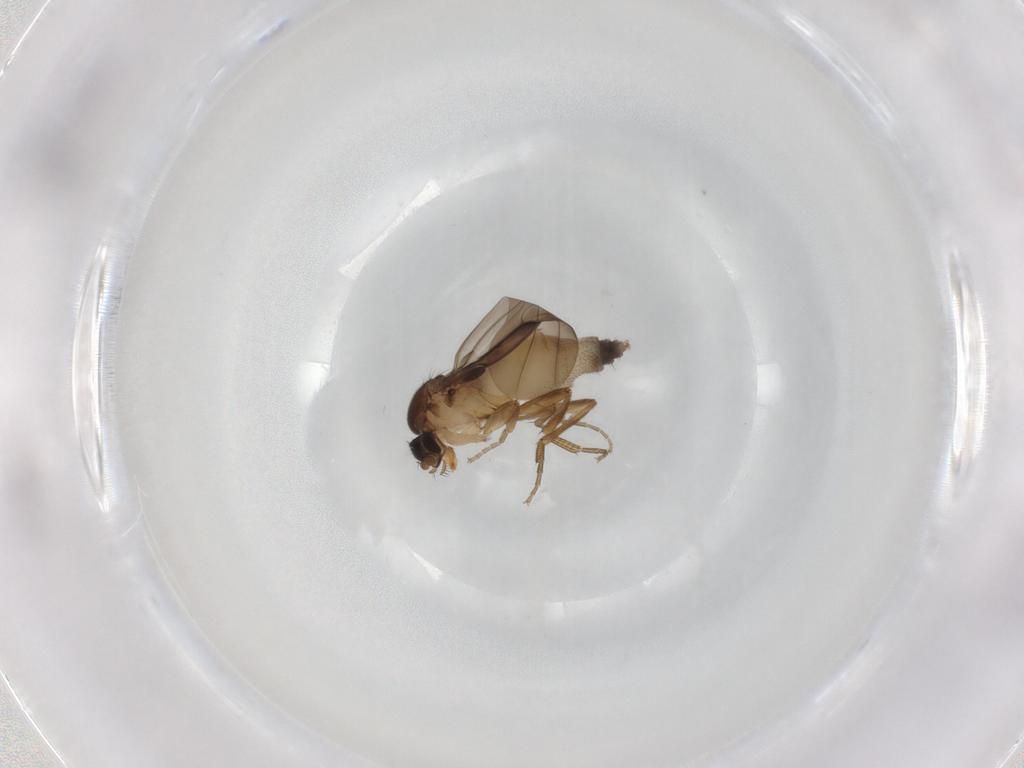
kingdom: Animalia
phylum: Arthropoda
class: Insecta
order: Diptera
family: Phoridae
